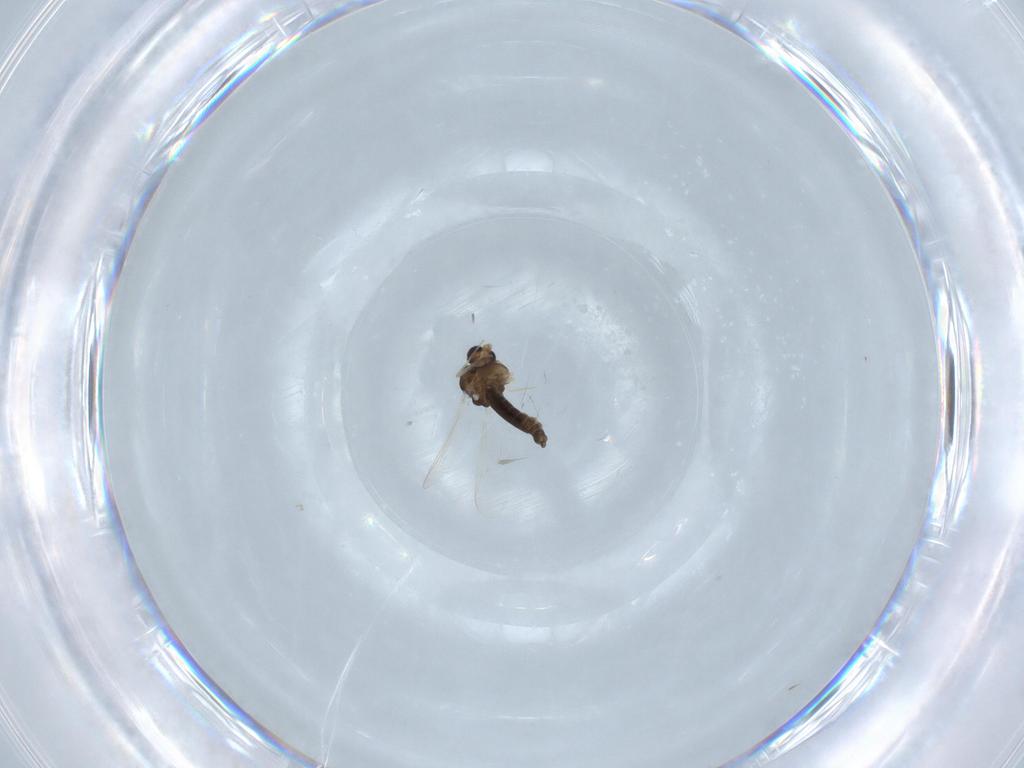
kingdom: Animalia
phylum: Arthropoda
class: Insecta
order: Diptera
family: Chironomidae
